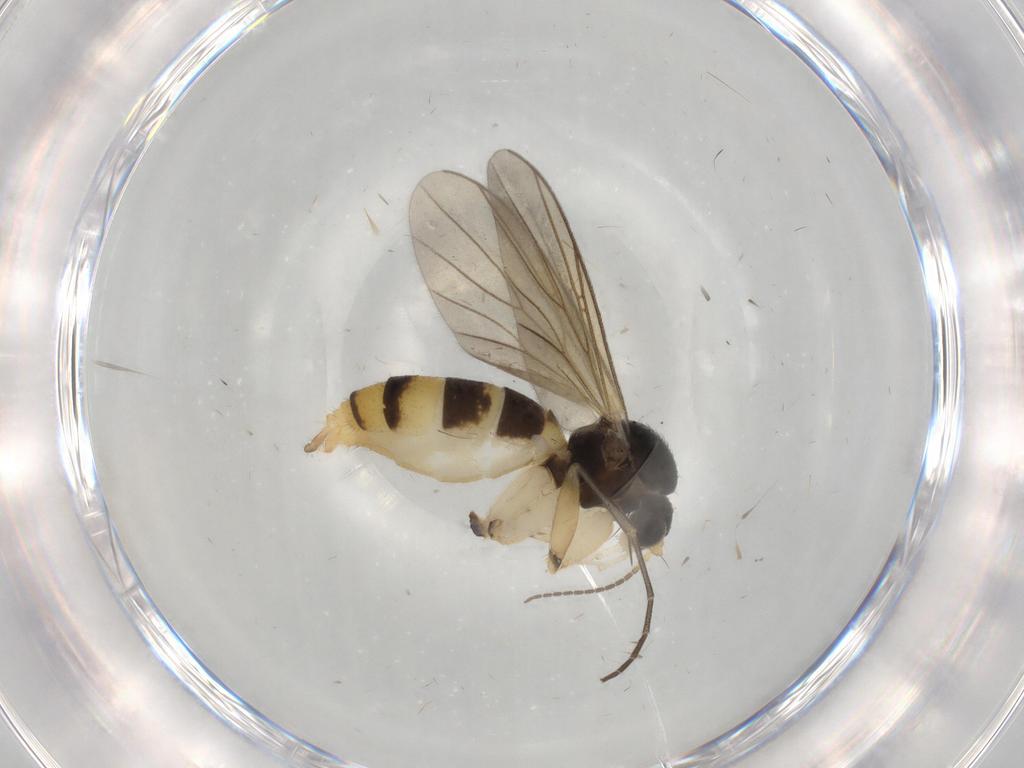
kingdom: Animalia
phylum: Arthropoda
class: Insecta
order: Diptera
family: Mycetophilidae
